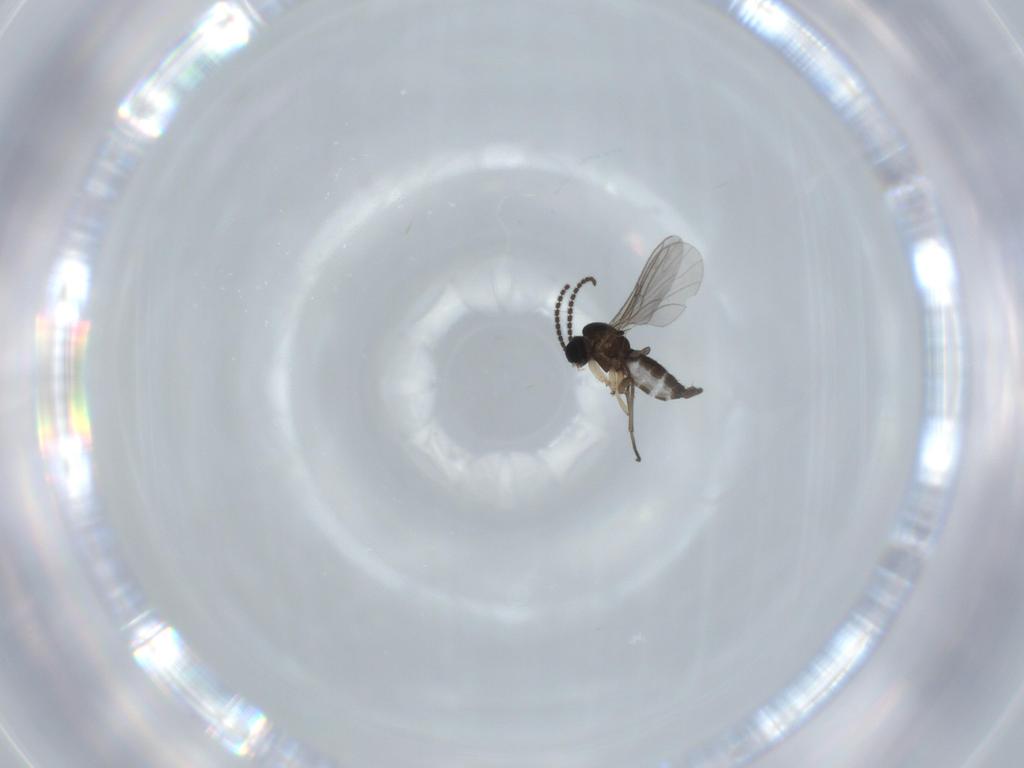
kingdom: Animalia
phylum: Arthropoda
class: Insecta
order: Diptera
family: Sciaridae
